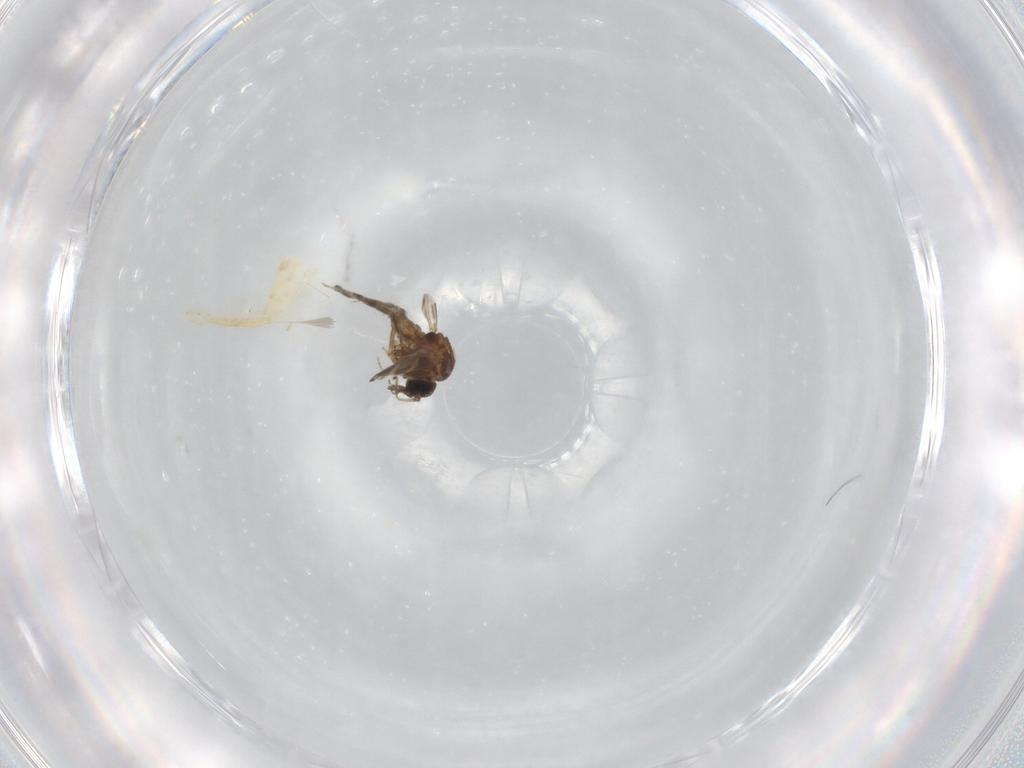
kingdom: Animalia
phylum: Arthropoda
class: Insecta
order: Diptera
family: Ceratopogonidae
